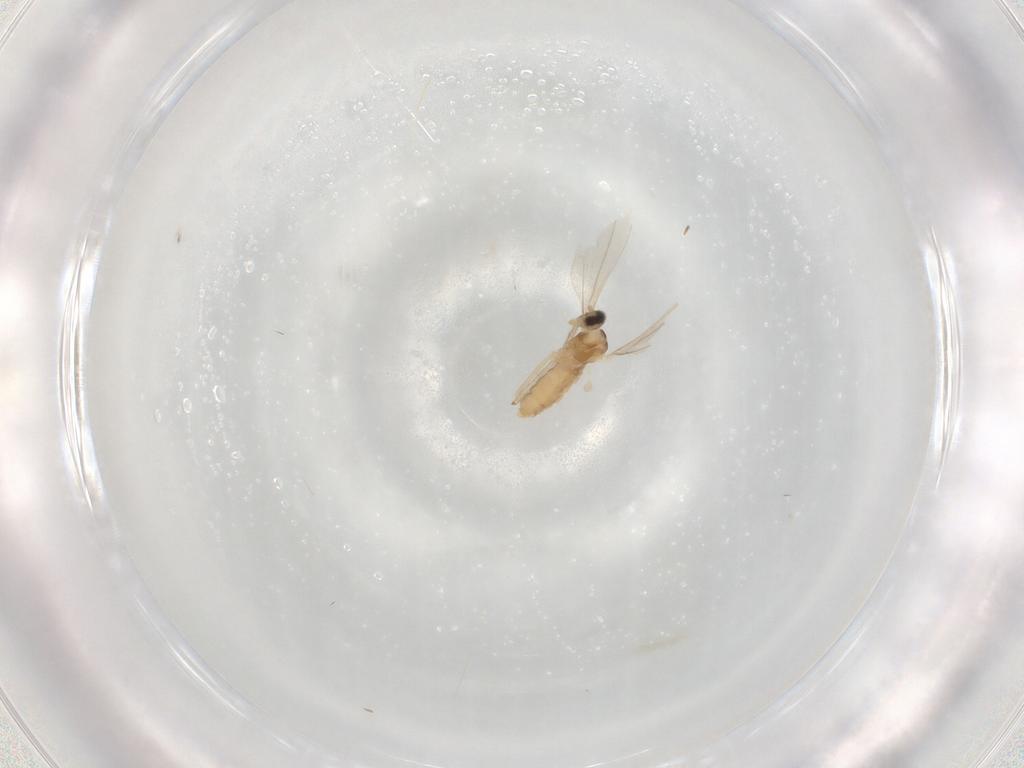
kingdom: Animalia
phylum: Arthropoda
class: Insecta
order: Diptera
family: Cecidomyiidae
